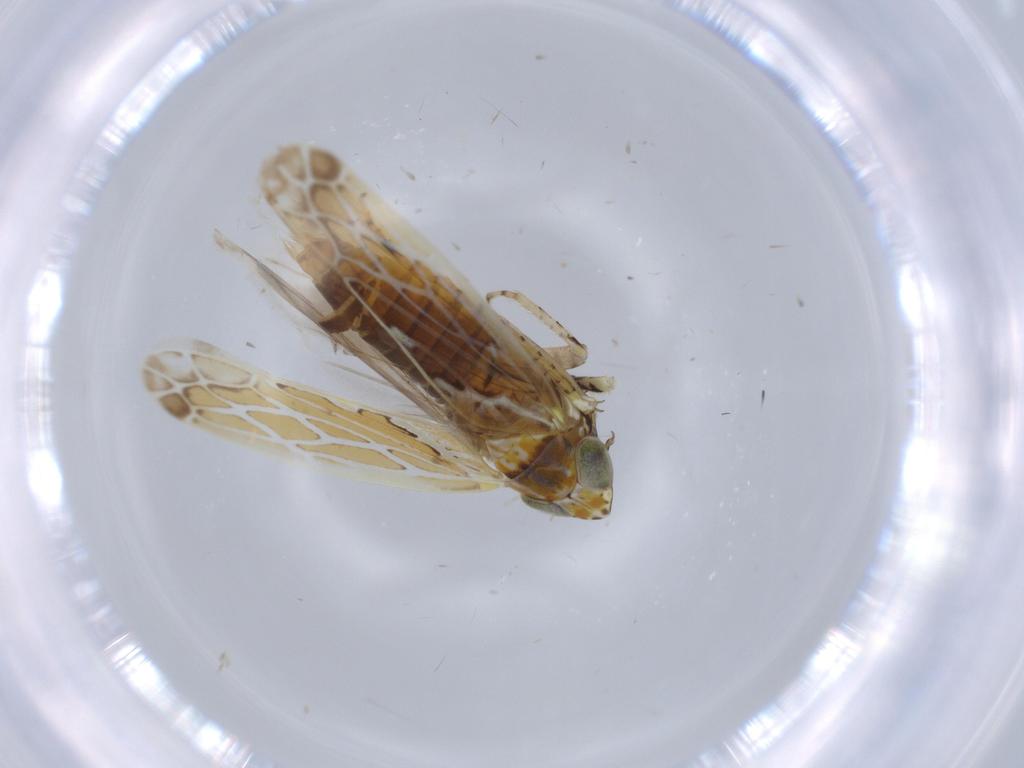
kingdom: Animalia
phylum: Arthropoda
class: Insecta
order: Hemiptera
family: Cicadellidae
